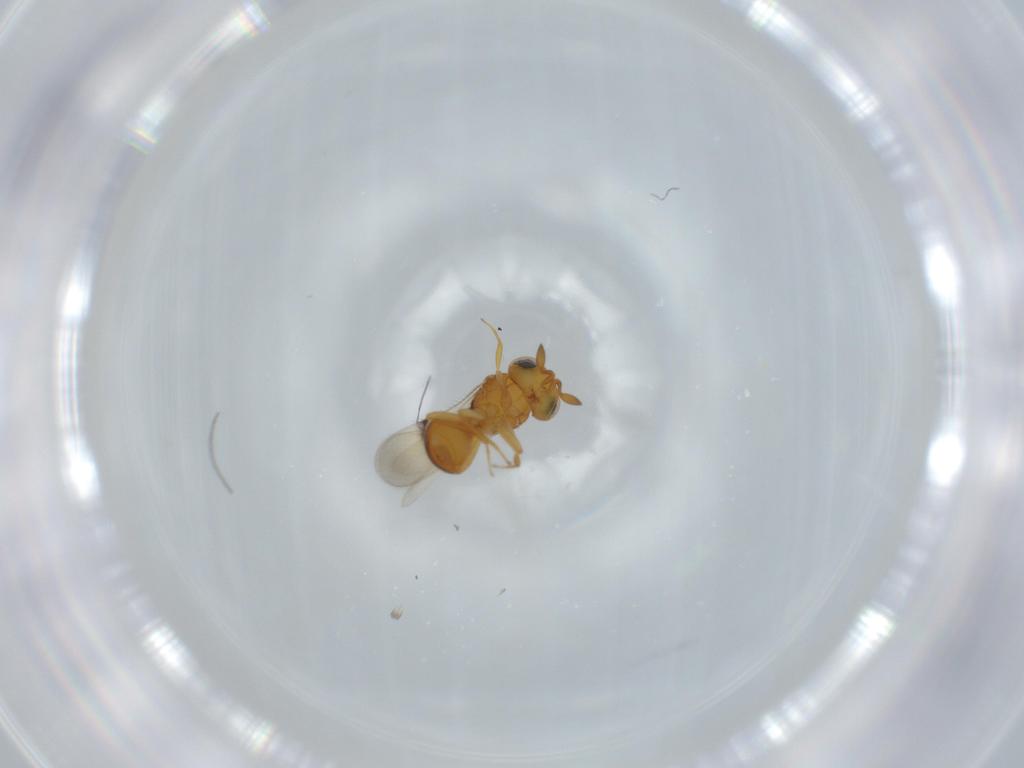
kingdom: Animalia
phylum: Arthropoda
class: Insecta
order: Hymenoptera
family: Scelionidae
